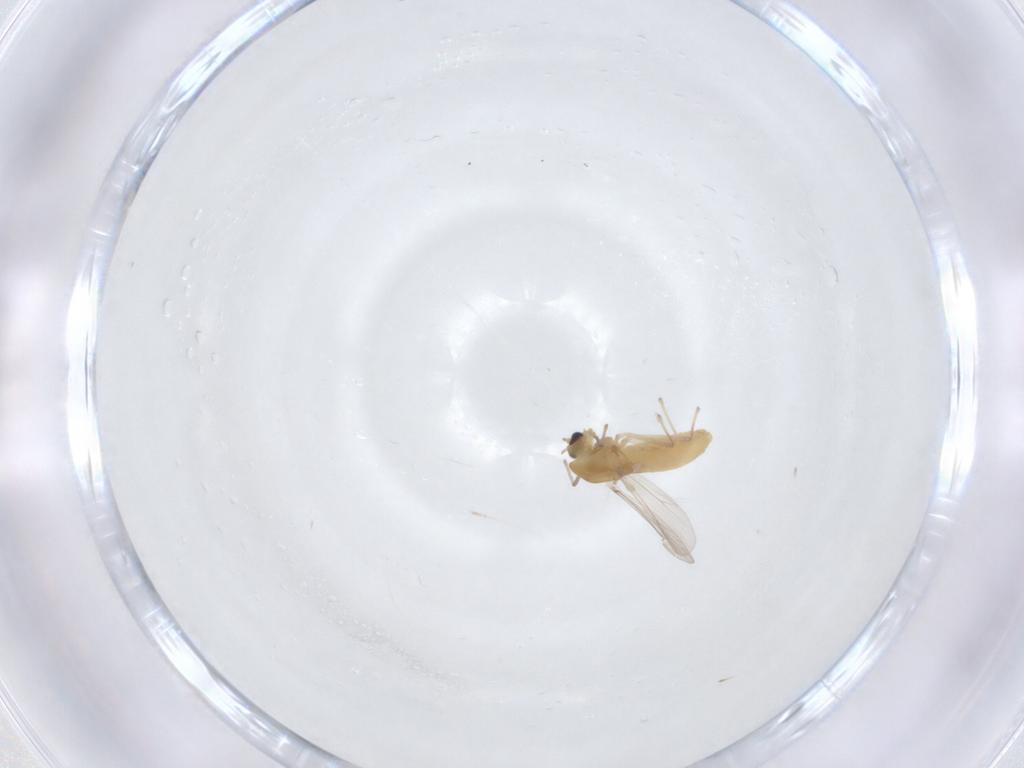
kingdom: Animalia
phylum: Arthropoda
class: Insecta
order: Diptera
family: Chironomidae
